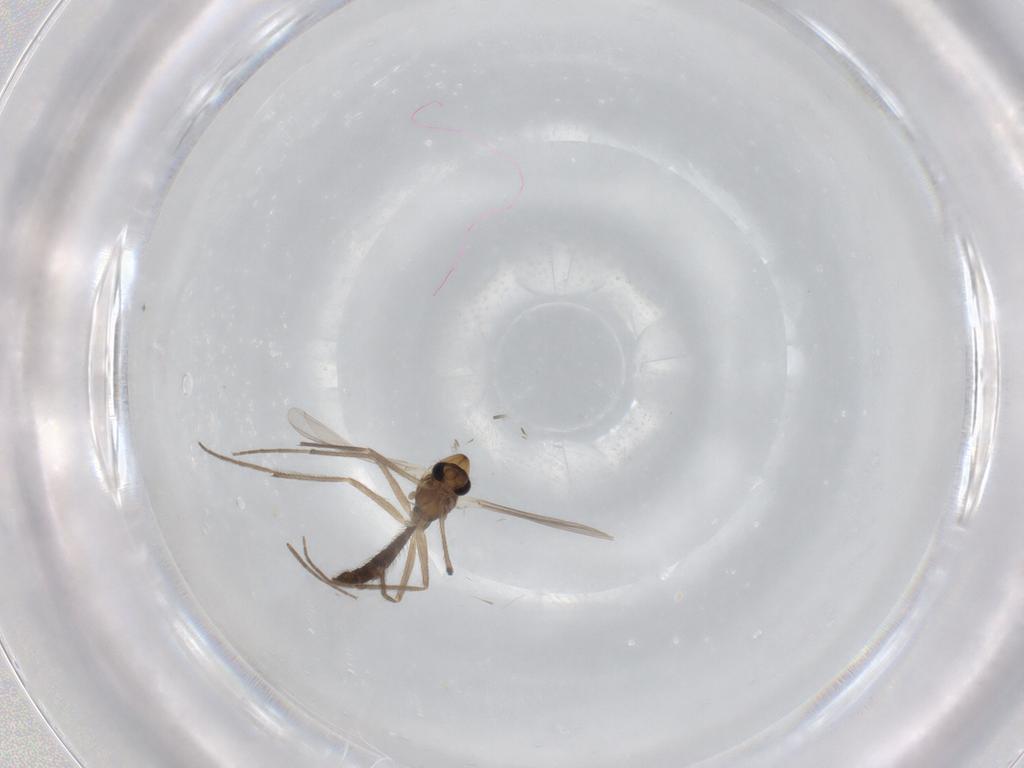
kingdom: Animalia
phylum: Arthropoda
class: Insecta
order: Diptera
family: Chironomidae
